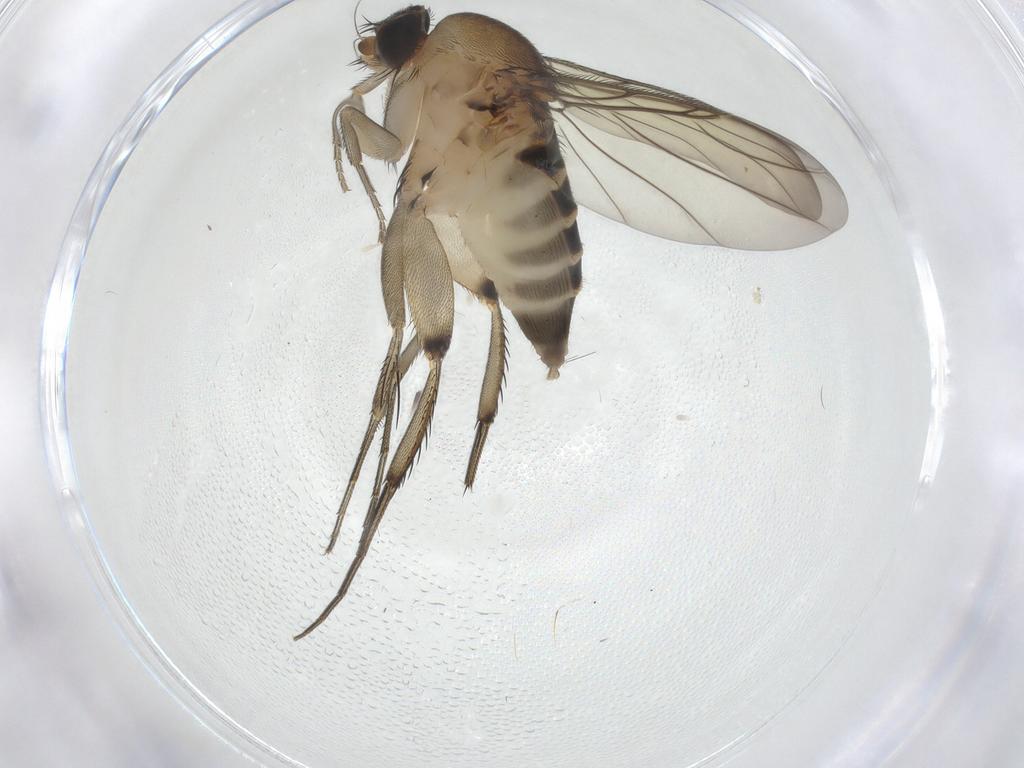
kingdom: Animalia
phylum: Arthropoda
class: Insecta
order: Diptera
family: Phoridae
